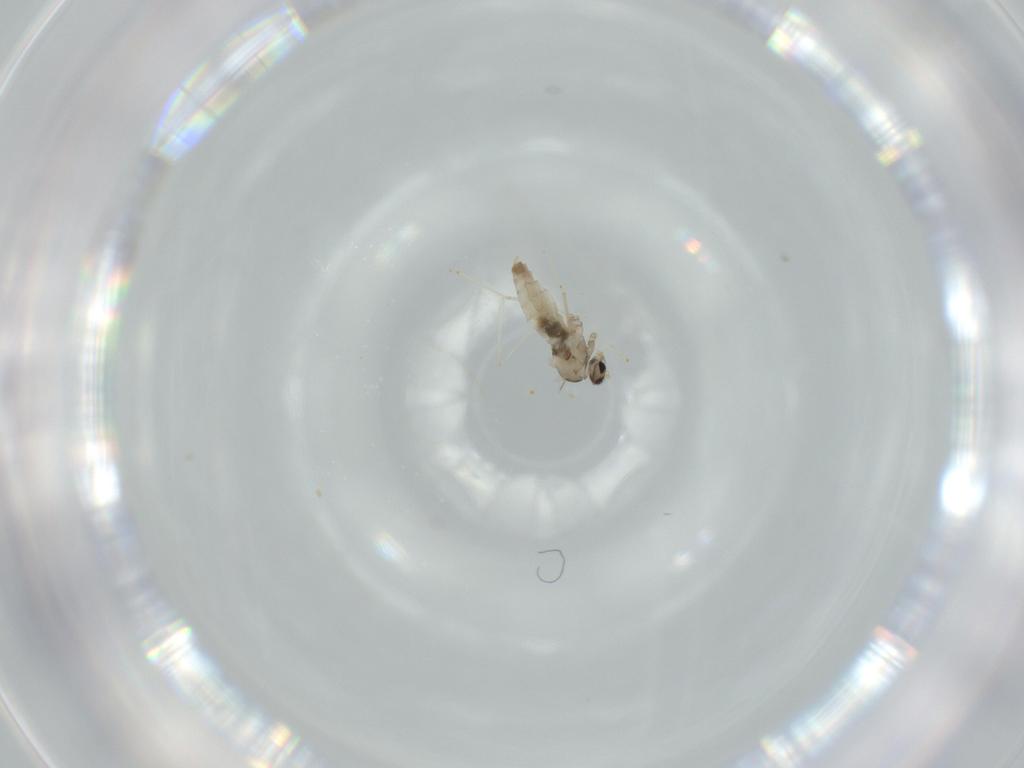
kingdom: Animalia
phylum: Arthropoda
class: Insecta
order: Diptera
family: Cecidomyiidae
